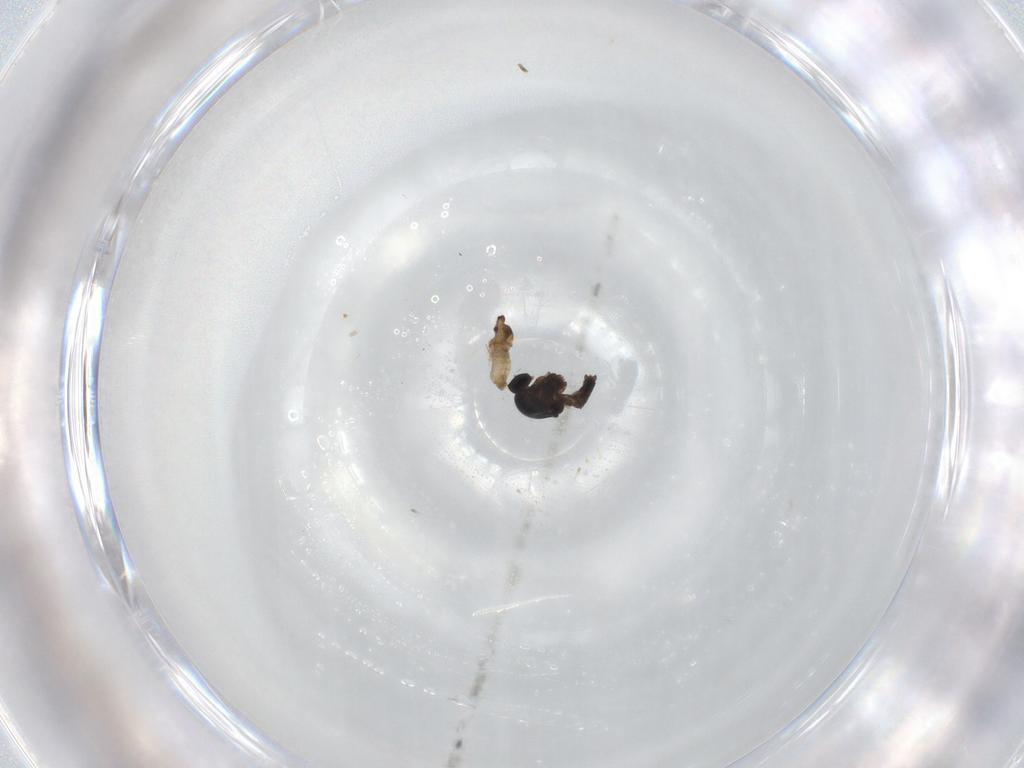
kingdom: Animalia
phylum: Arthropoda
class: Insecta
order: Diptera
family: Cecidomyiidae
